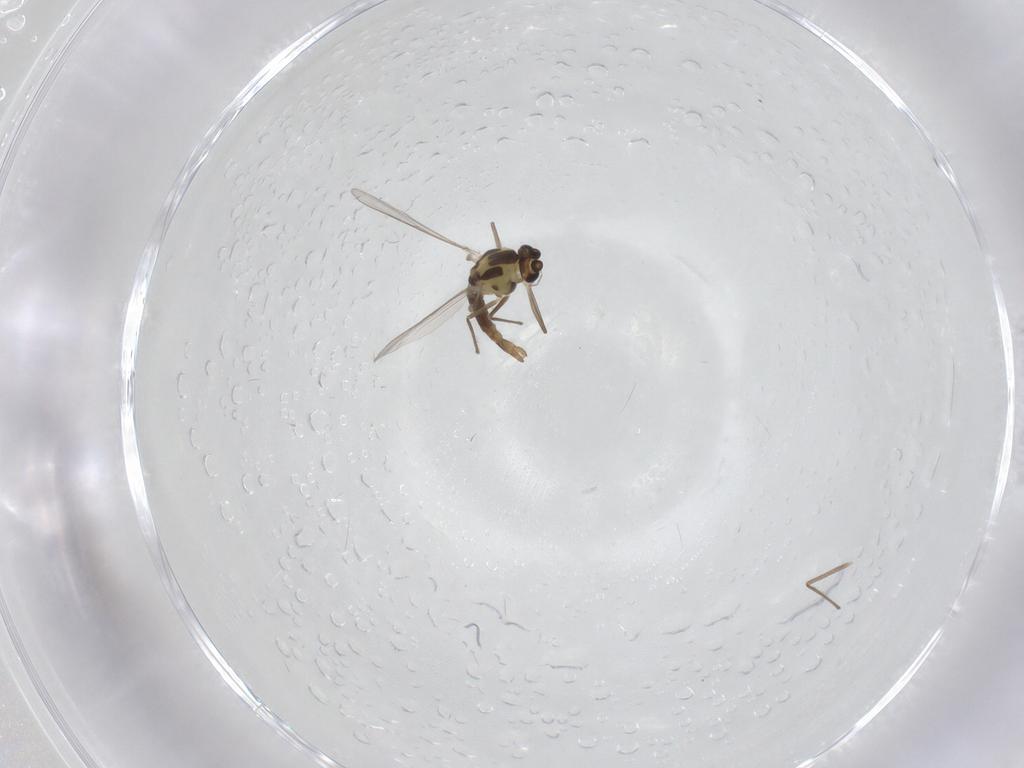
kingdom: Animalia
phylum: Arthropoda
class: Insecta
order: Diptera
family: Chironomidae
